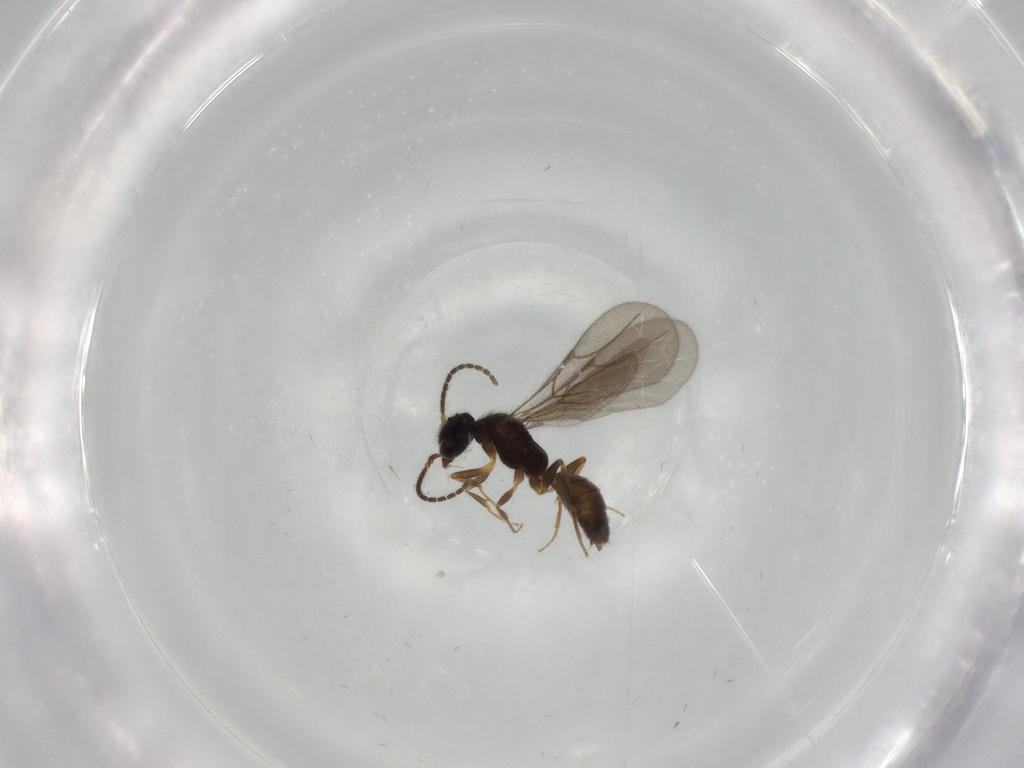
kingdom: Animalia
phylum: Arthropoda
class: Insecta
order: Hymenoptera
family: Bethylidae
